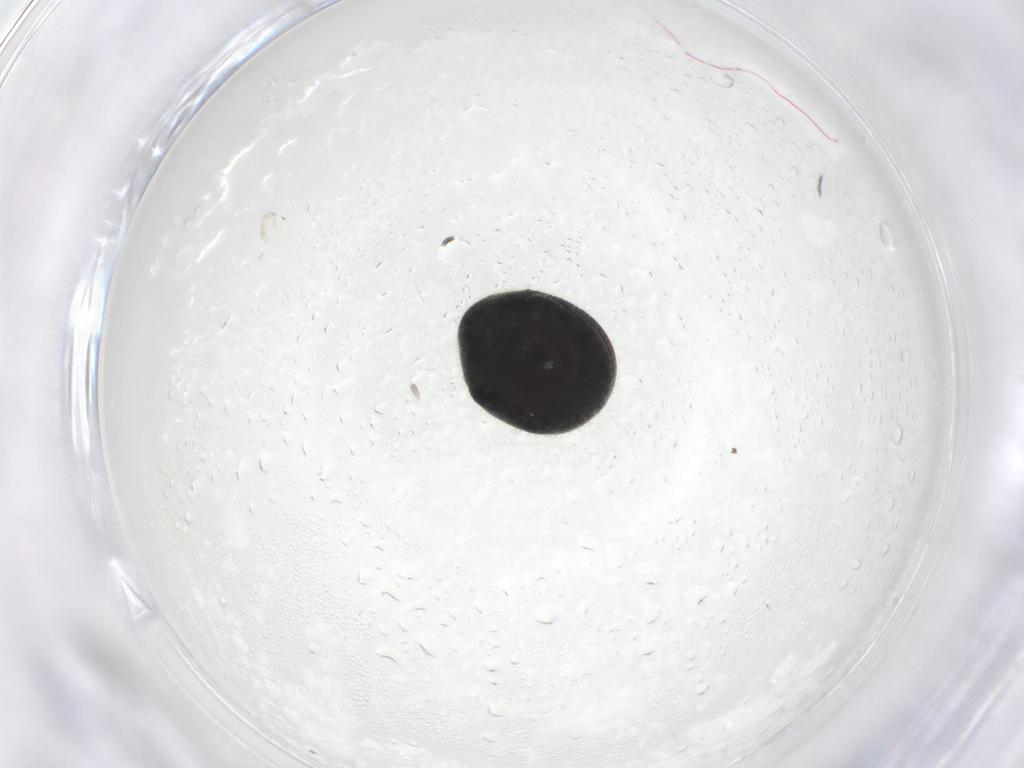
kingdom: Animalia
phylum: Arthropoda
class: Insecta
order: Coleoptera
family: Ptinidae
